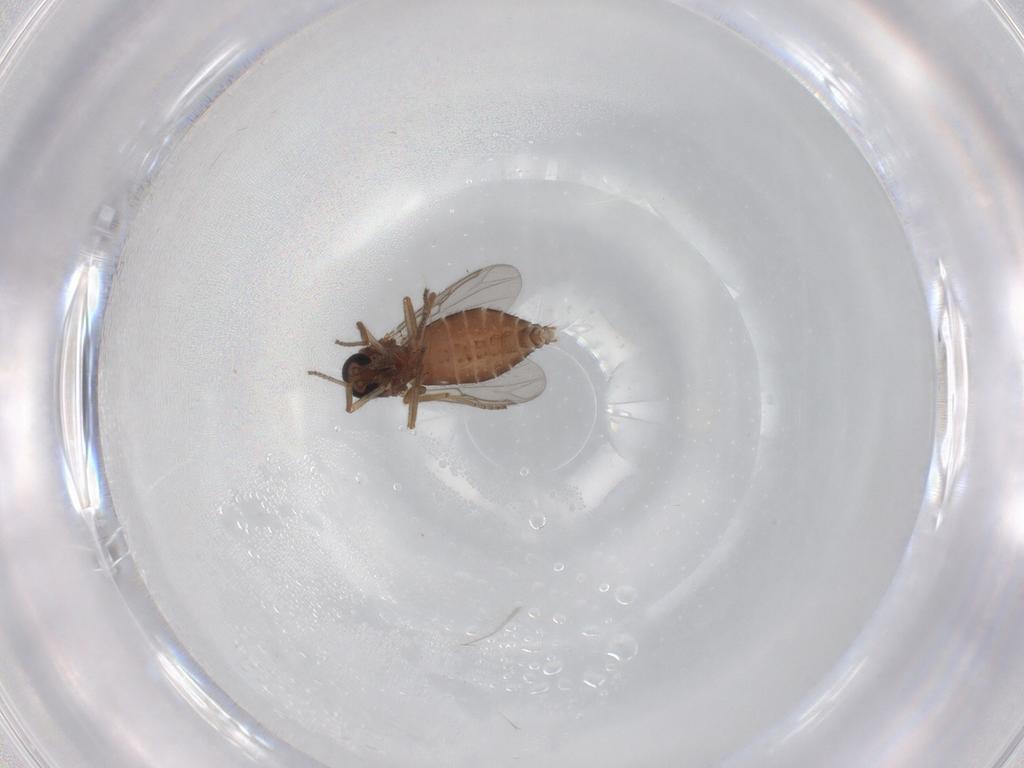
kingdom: Animalia
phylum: Arthropoda
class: Insecta
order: Diptera
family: Ceratopogonidae
